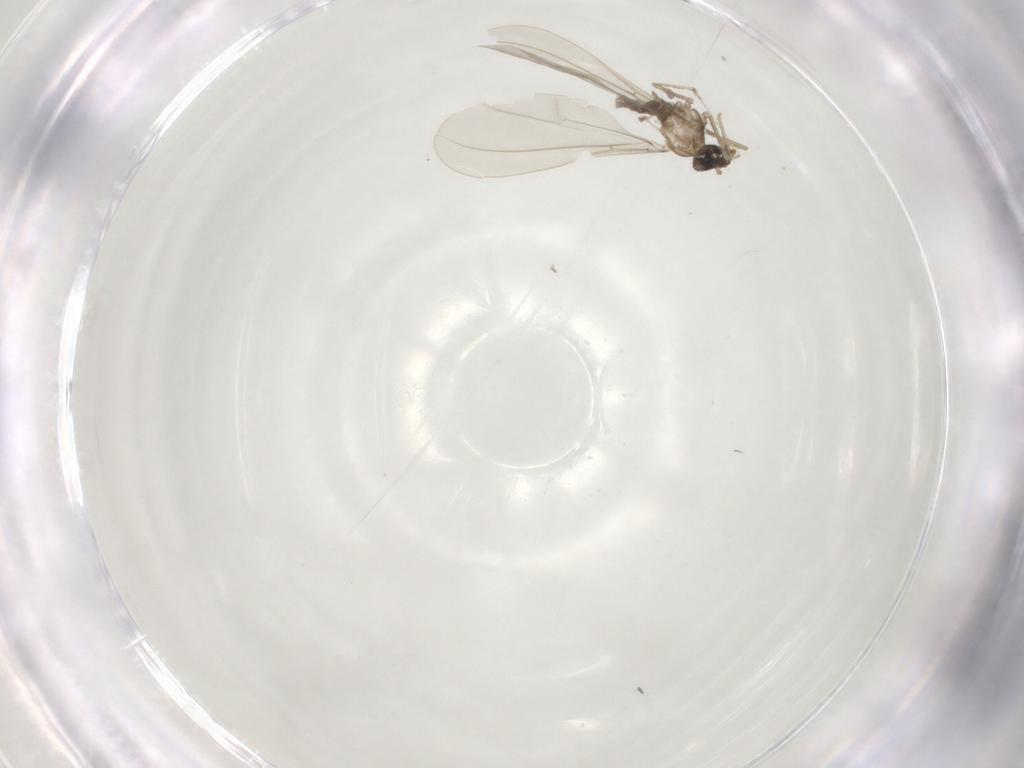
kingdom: Animalia
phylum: Arthropoda
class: Insecta
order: Diptera
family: Cecidomyiidae
